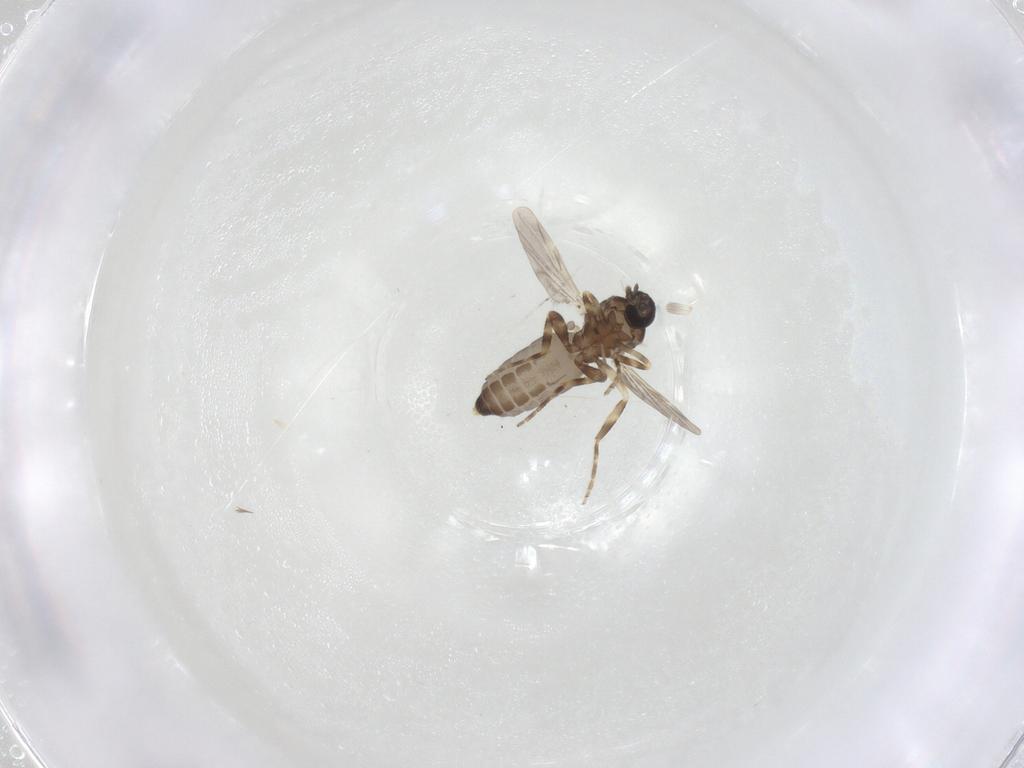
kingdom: Animalia
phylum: Arthropoda
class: Insecta
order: Diptera
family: Ceratopogonidae
